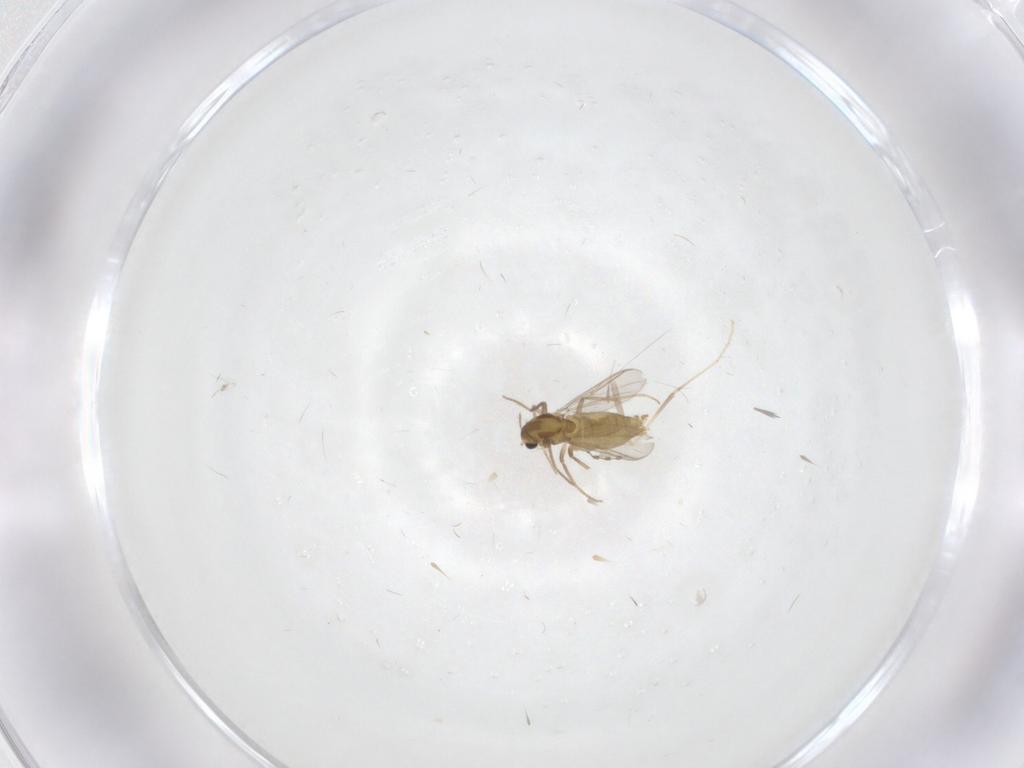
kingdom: Animalia
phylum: Arthropoda
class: Insecta
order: Diptera
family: Chironomidae
